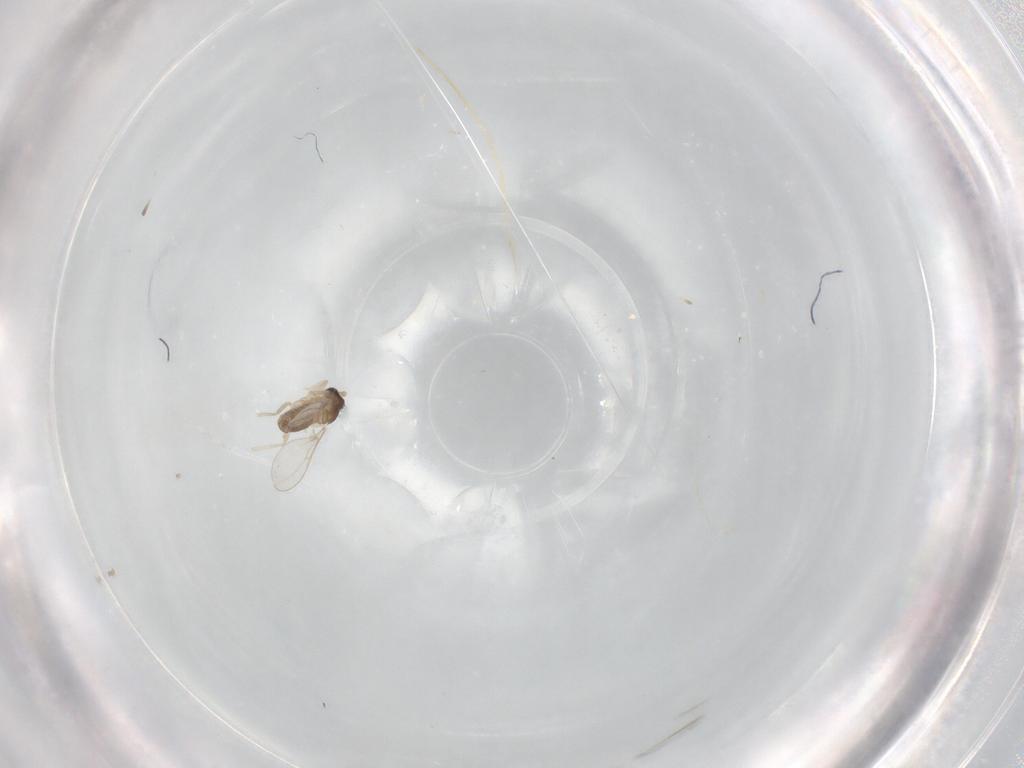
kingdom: Animalia
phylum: Arthropoda
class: Insecta
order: Diptera
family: Cecidomyiidae
